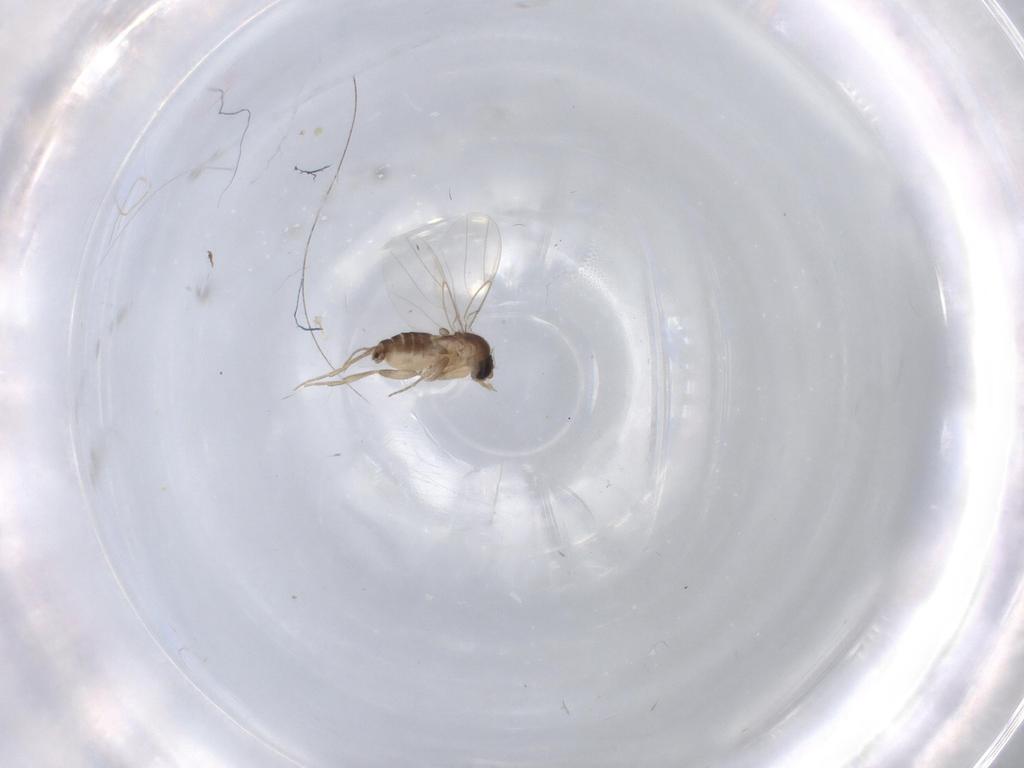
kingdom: Animalia
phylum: Arthropoda
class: Insecta
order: Diptera
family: Phoridae
